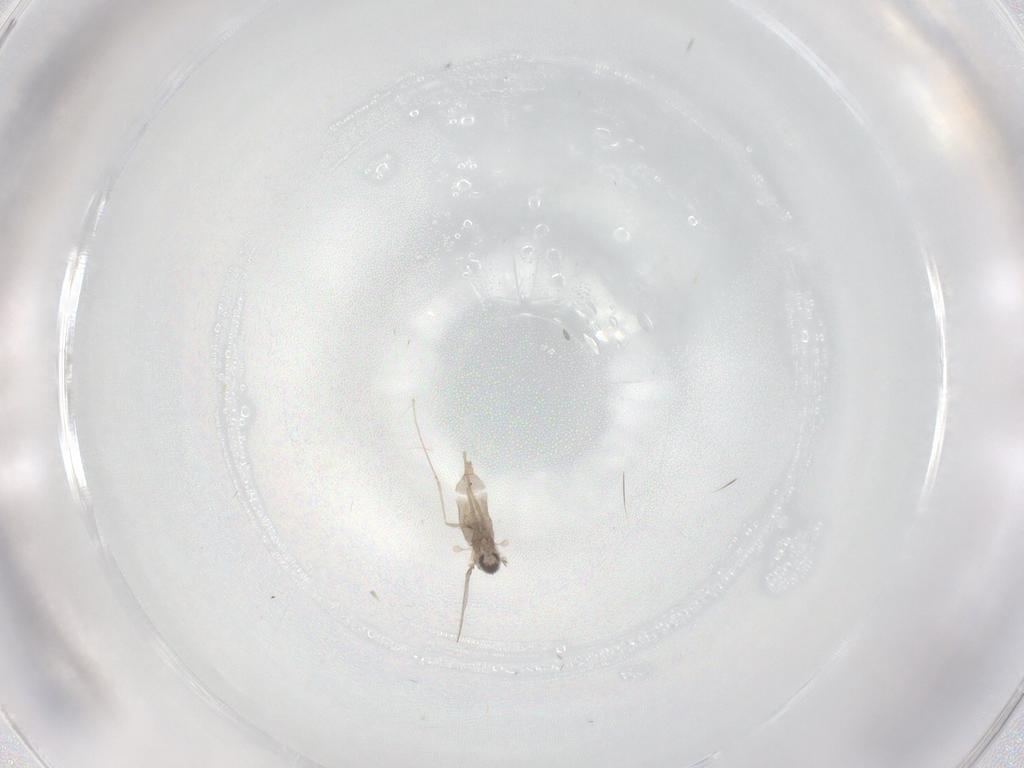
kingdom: Animalia
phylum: Arthropoda
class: Insecta
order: Diptera
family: Cecidomyiidae
